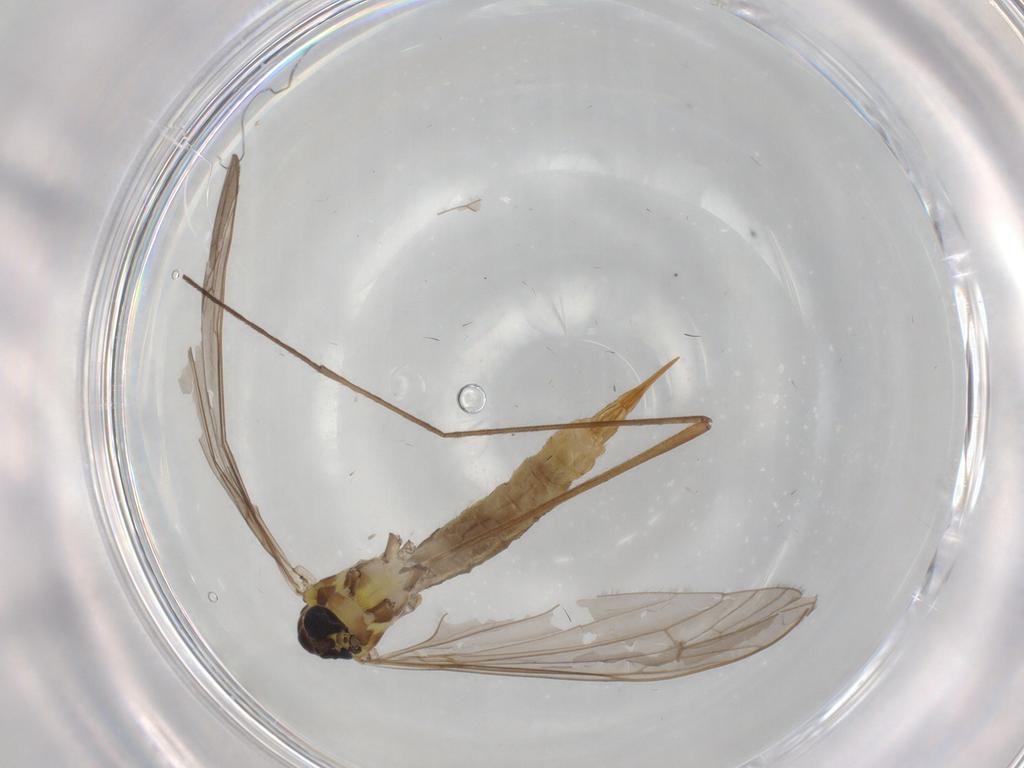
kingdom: Animalia
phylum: Arthropoda
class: Insecta
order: Diptera
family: Limoniidae
